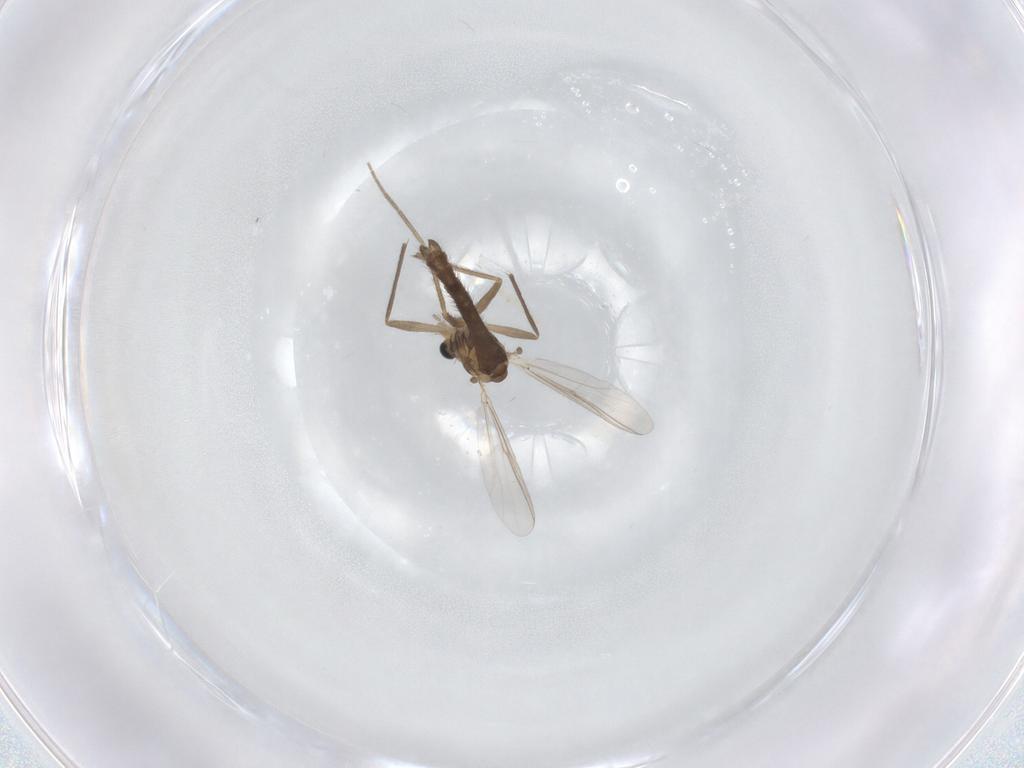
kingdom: Animalia
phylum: Arthropoda
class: Insecta
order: Diptera
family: Chironomidae
